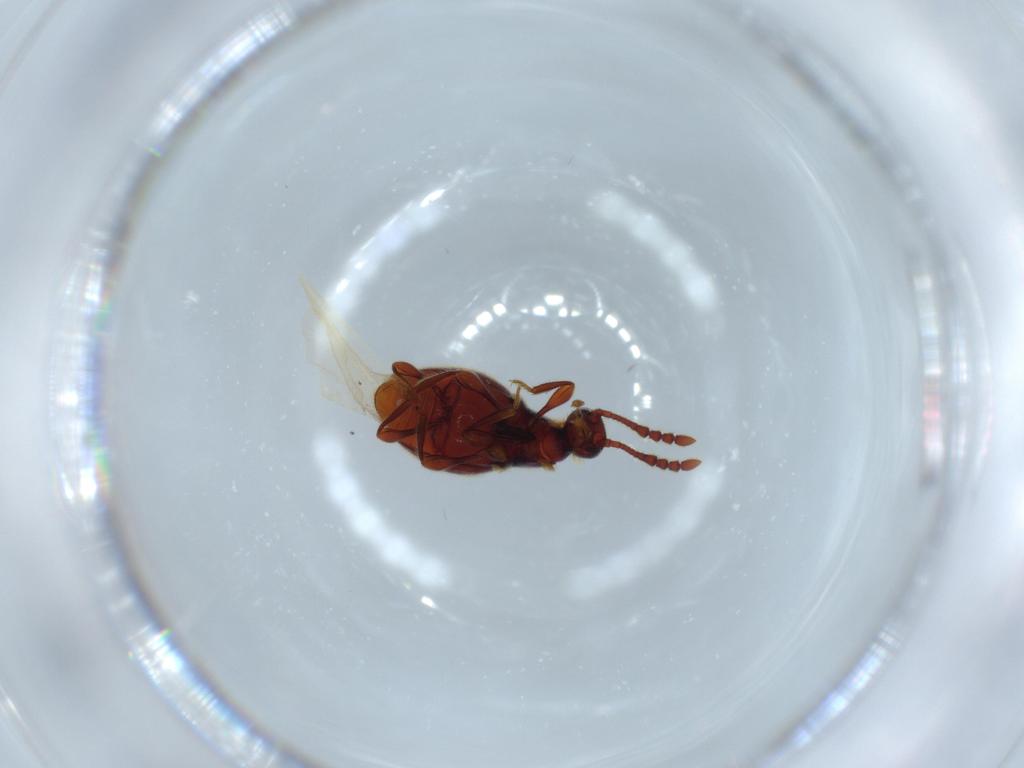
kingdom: Animalia
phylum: Arthropoda
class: Insecta
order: Coleoptera
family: Staphylinidae
